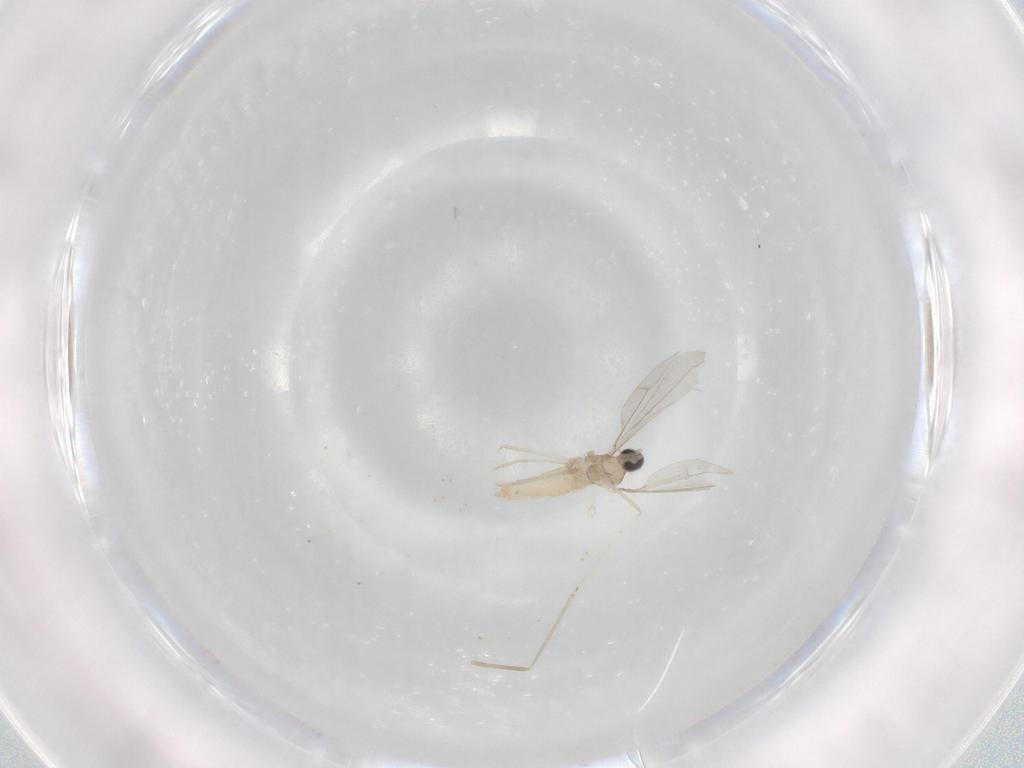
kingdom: Animalia
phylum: Arthropoda
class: Insecta
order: Diptera
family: Cecidomyiidae
